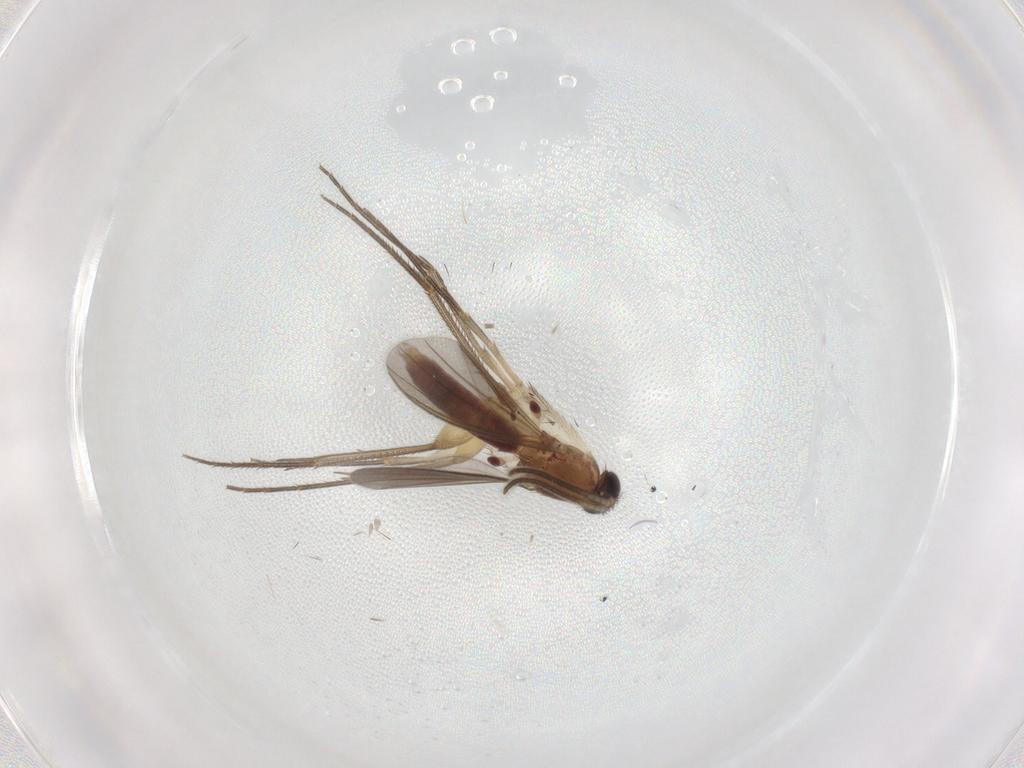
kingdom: Animalia
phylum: Arthropoda
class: Insecta
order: Diptera
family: Mycetophilidae
